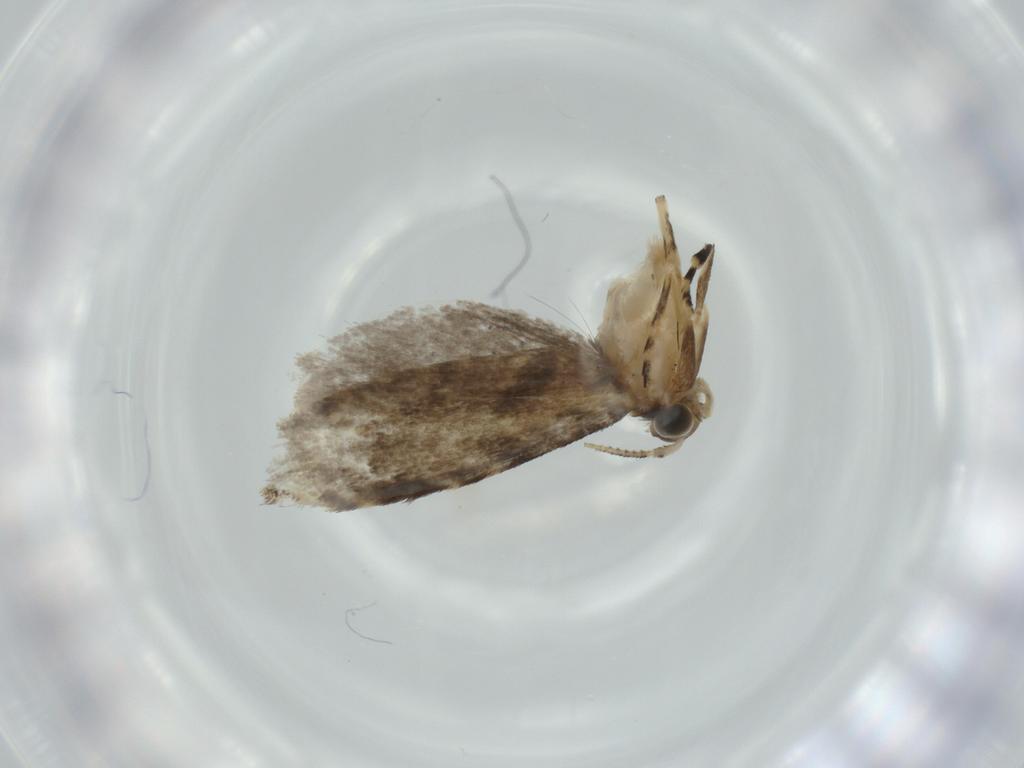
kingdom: Animalia
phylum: Arthropoda
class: Insecta
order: Lepidoptera
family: Tineidae
